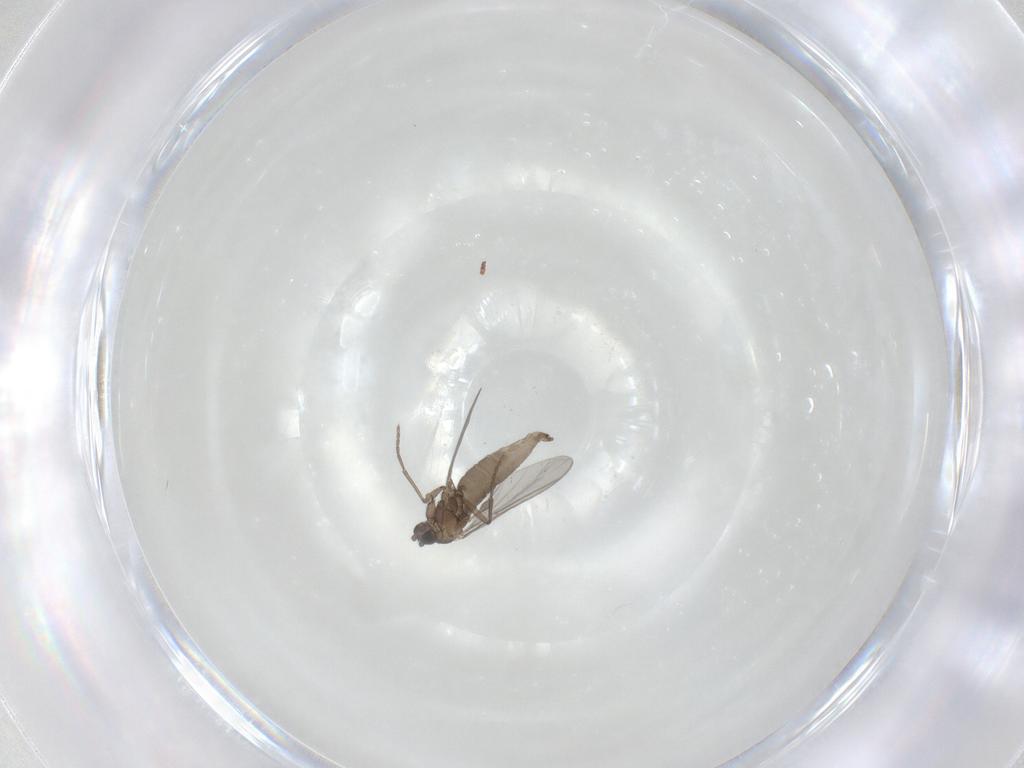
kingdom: Animalia
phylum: Arthropoda
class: Insecta
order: Diptera
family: Sciaridae
